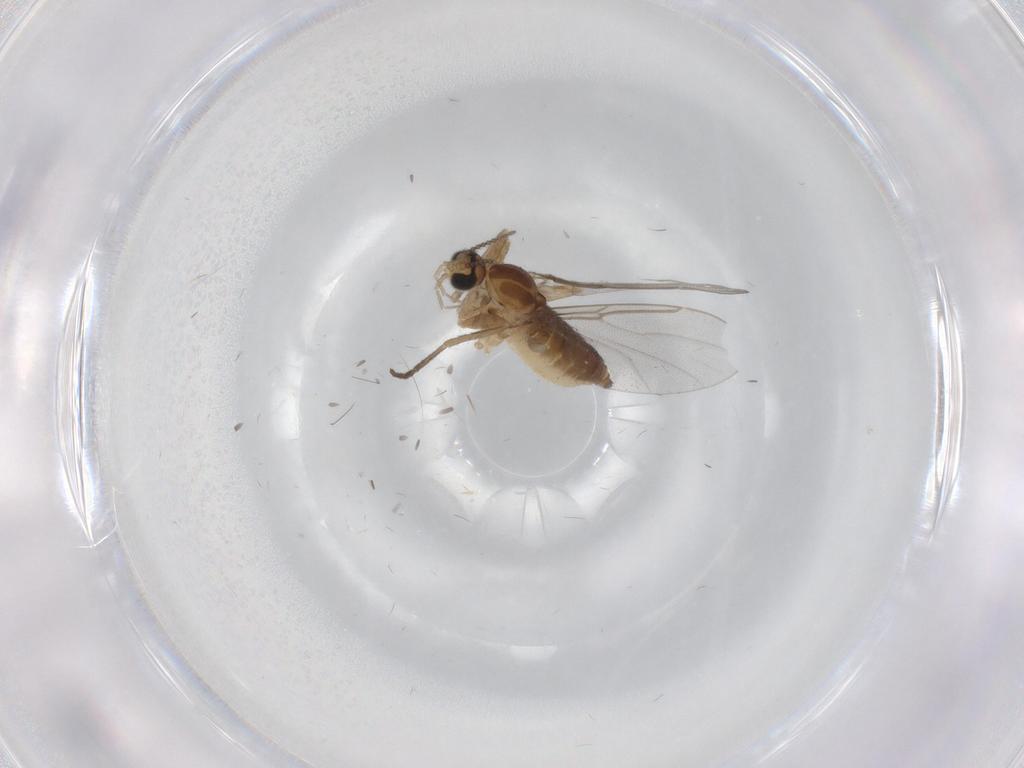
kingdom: Animalia
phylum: Arthropoda
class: Insecta
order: Diptera
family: Cecidomyiidae
